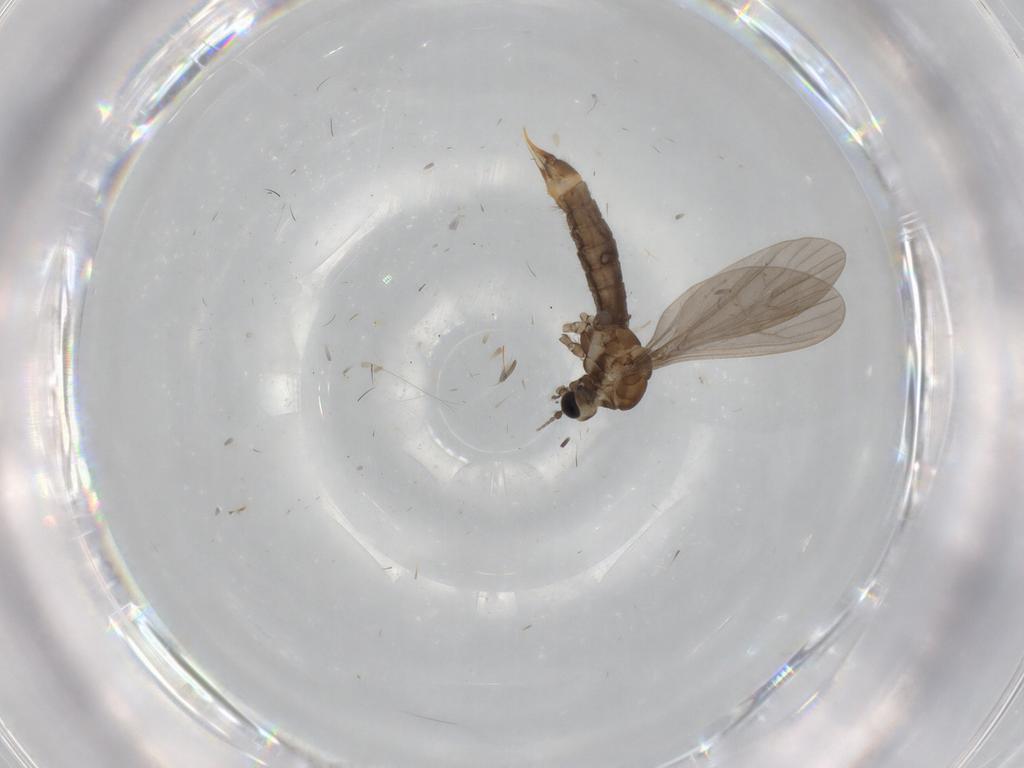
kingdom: Animalia
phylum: Arthropoda
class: Insecta
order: Diptera
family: Limoniidae
